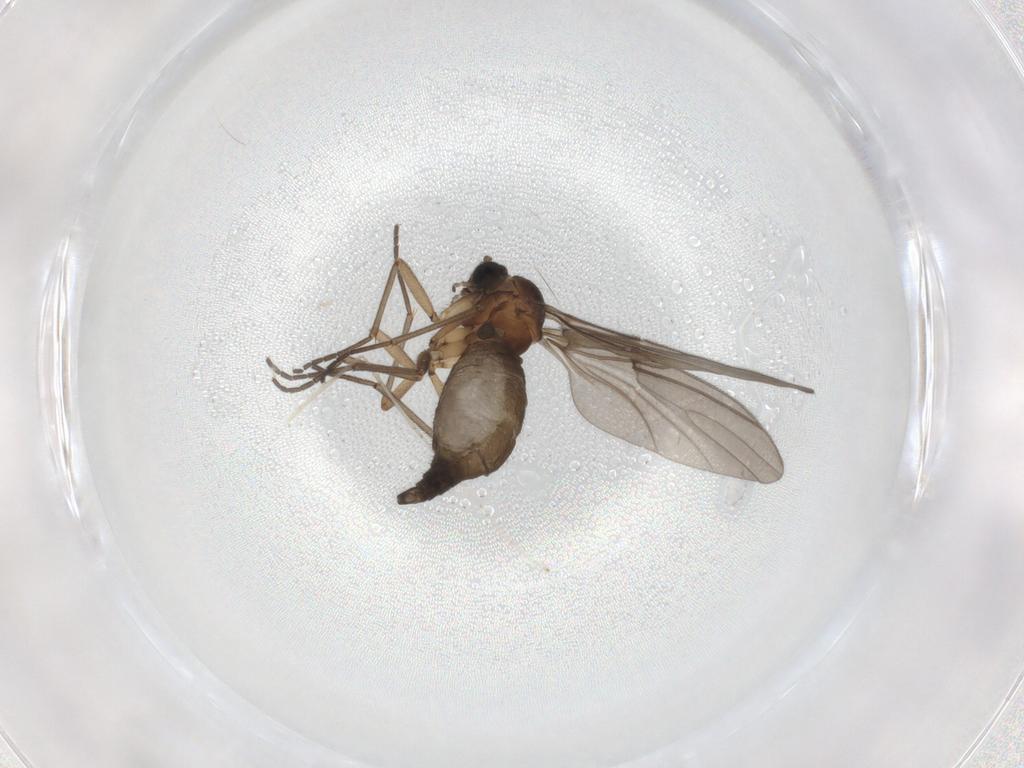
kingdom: Animalia
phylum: Arthropoda
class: Insecta
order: Diptera
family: Sciaridae
